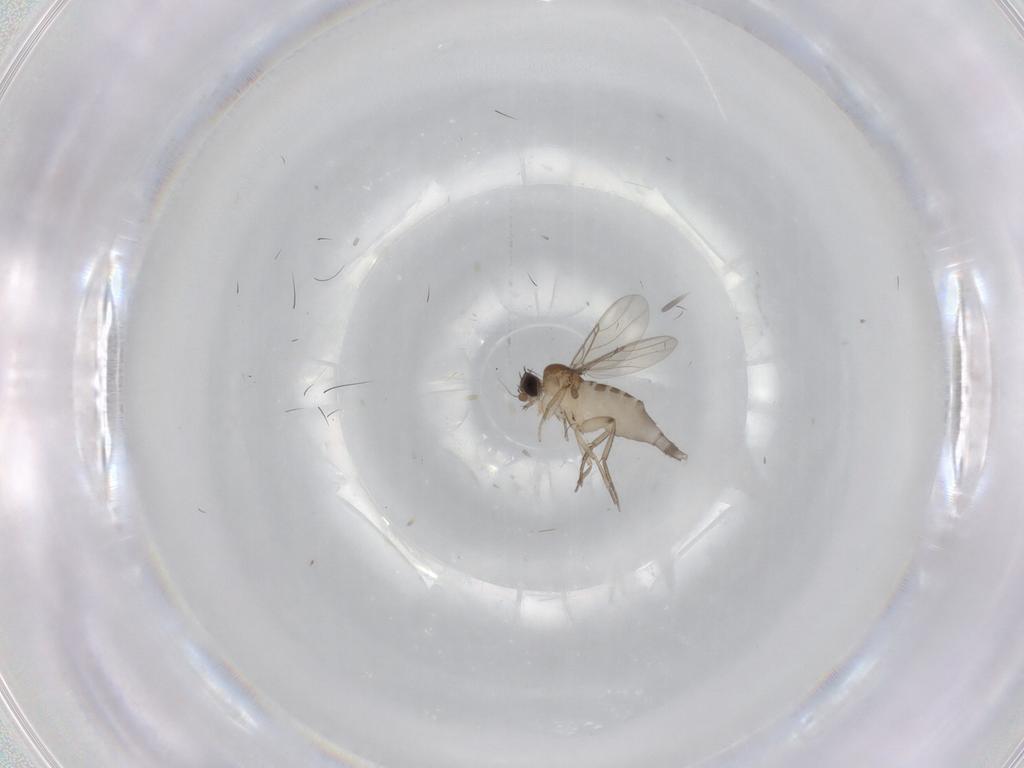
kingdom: Animalia
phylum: Arthropoda
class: Insecta
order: Diptera
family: Phoridae
